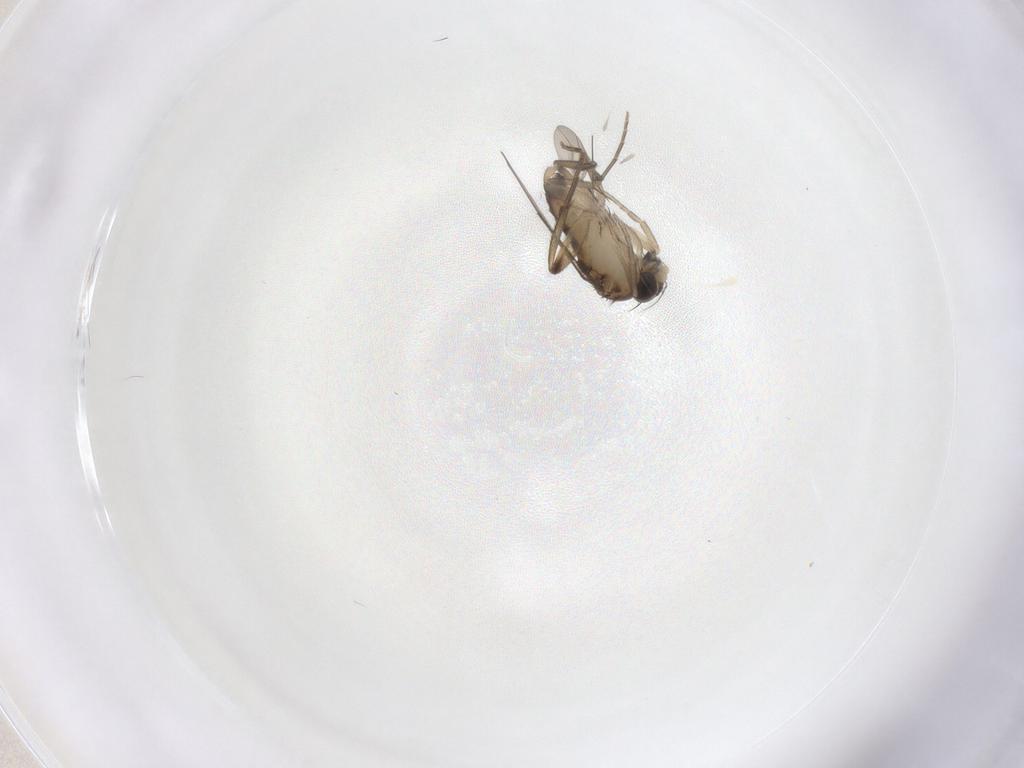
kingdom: Animalia
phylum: Arthropoda
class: Insecta
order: Diptera
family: Phoridae
